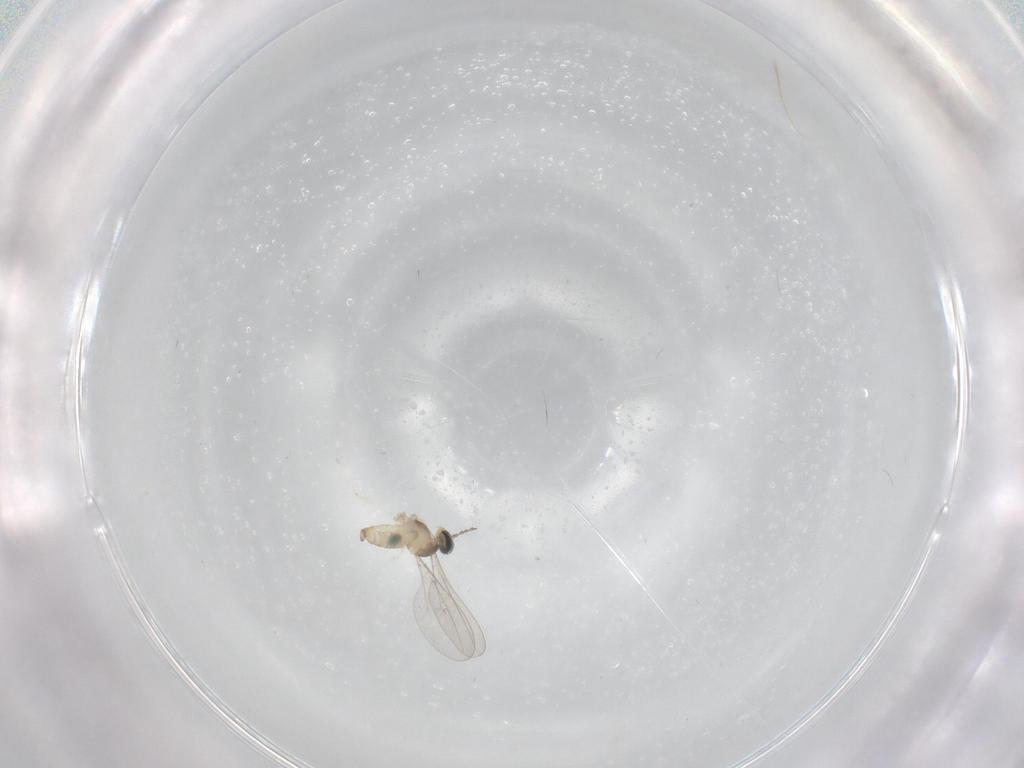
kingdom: Animalia
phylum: Arthropoda
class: Insecta
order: Diptera
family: Cecidomyiidae
